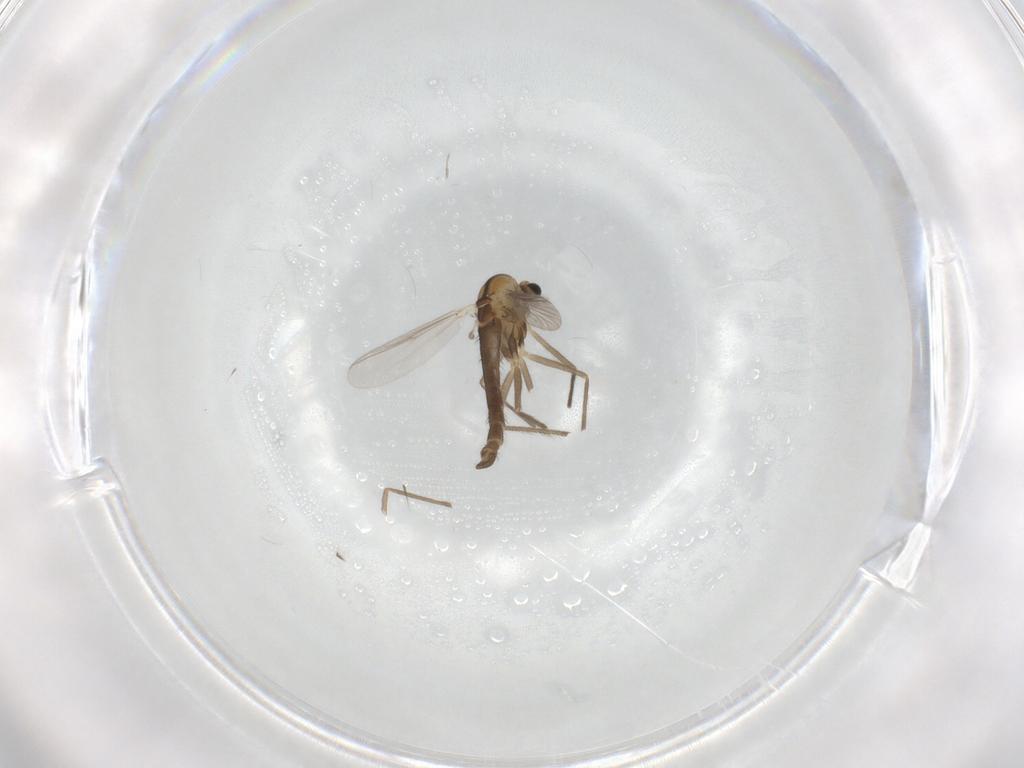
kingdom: Animalia
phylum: Arthropoda
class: Insecta
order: Diptera
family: Chironomidae
